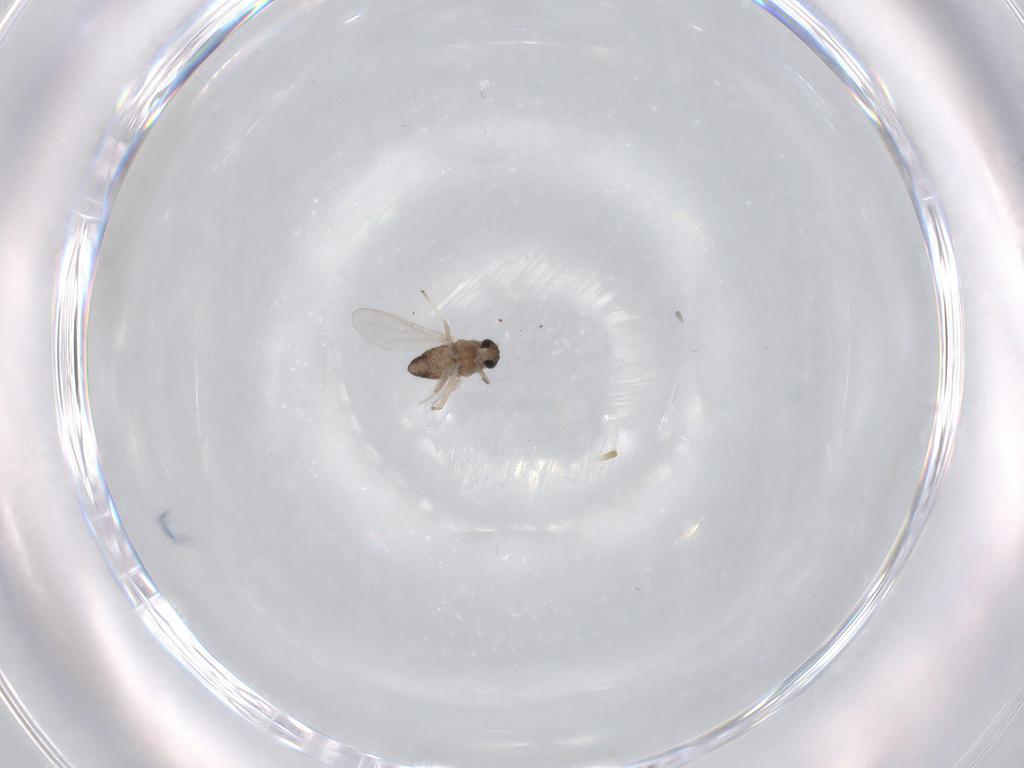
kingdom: Animalia
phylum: Arthropoda
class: Insecta
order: Diptera
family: Chironomidae
